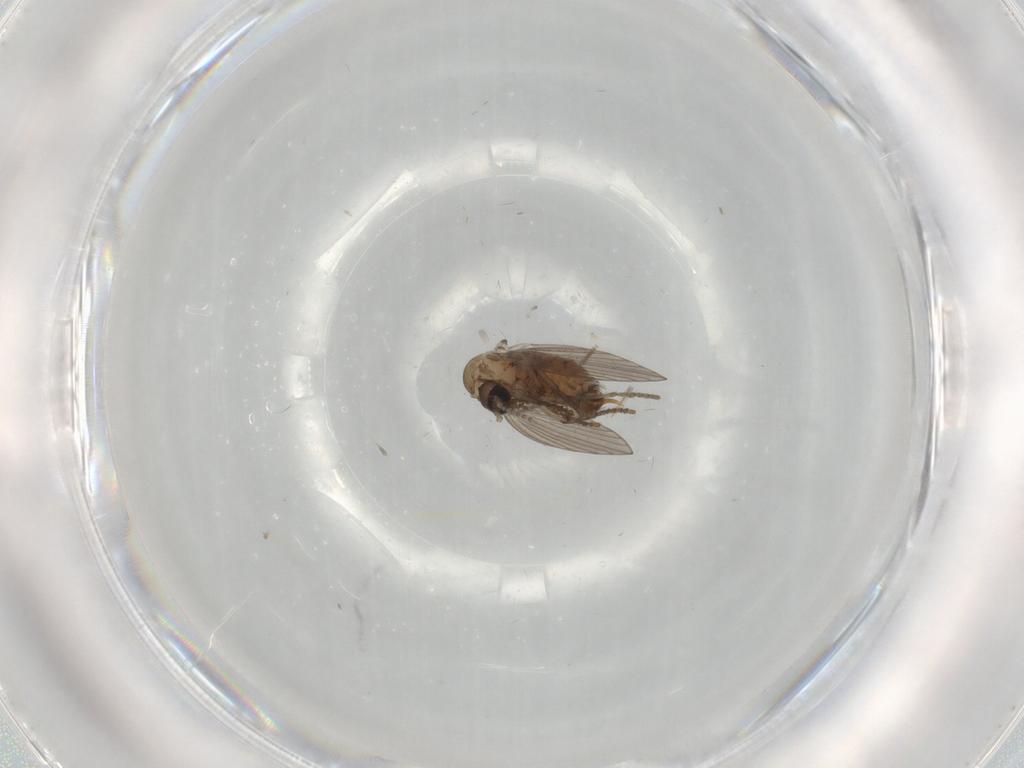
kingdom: Animalia
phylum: Arthropoda
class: Insecta
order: Diptera
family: Psychodidae
